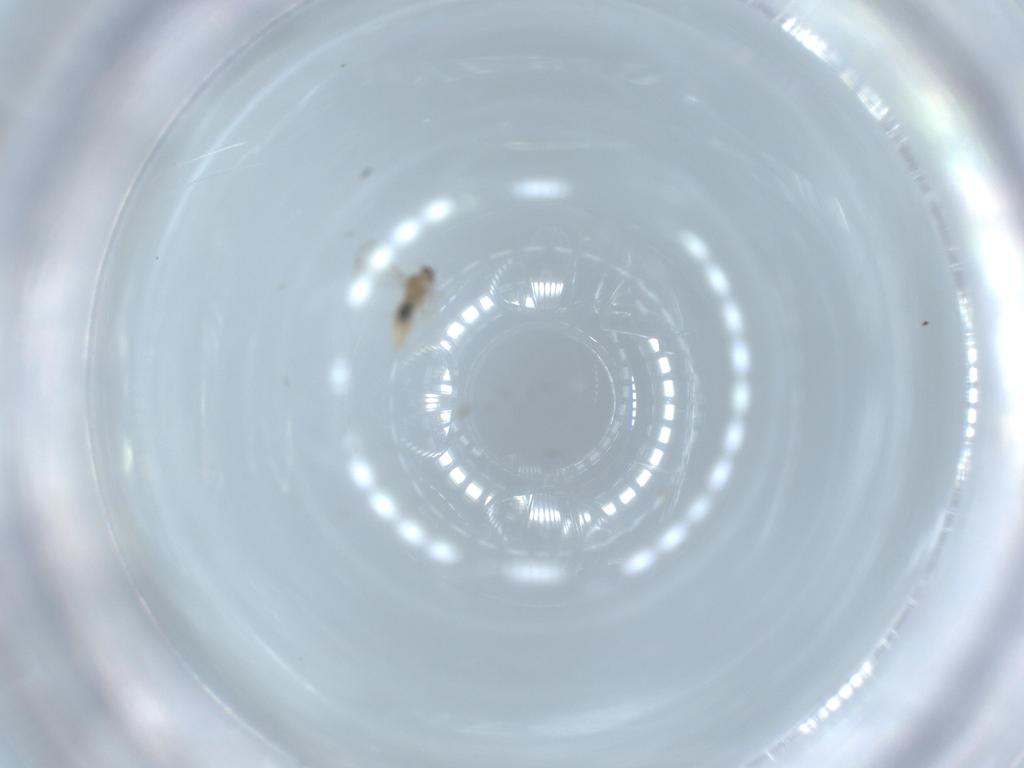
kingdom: Animalia
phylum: Arthropoda
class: Insecta
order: Diptera
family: Cecidomyiidae
